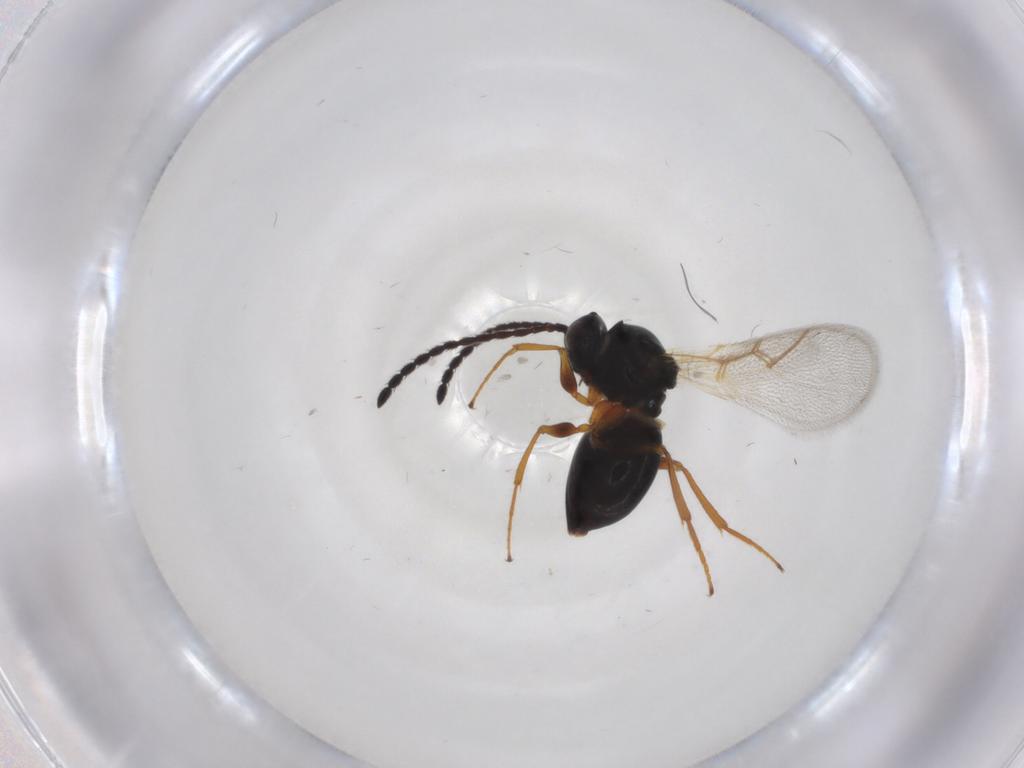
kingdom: Animalia
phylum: Arthropoda
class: Insecta
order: Hymenoptera
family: Figitidae
